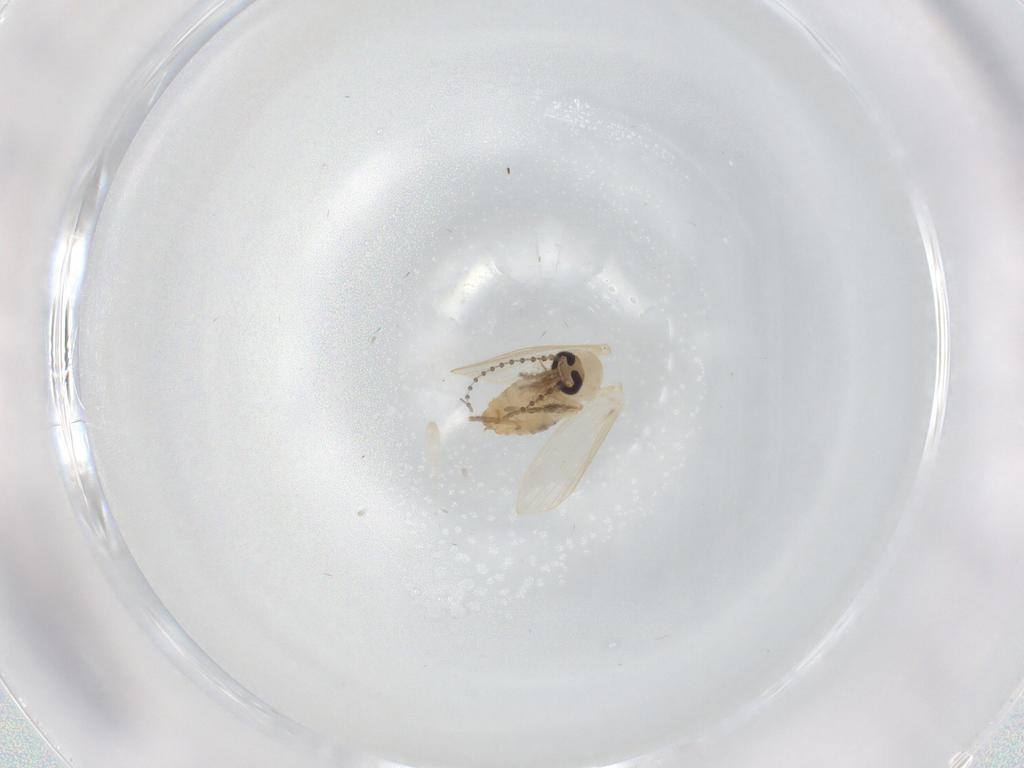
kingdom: Animalia
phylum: Arthropoda
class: Insecta
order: Diptera
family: Psychodidae
